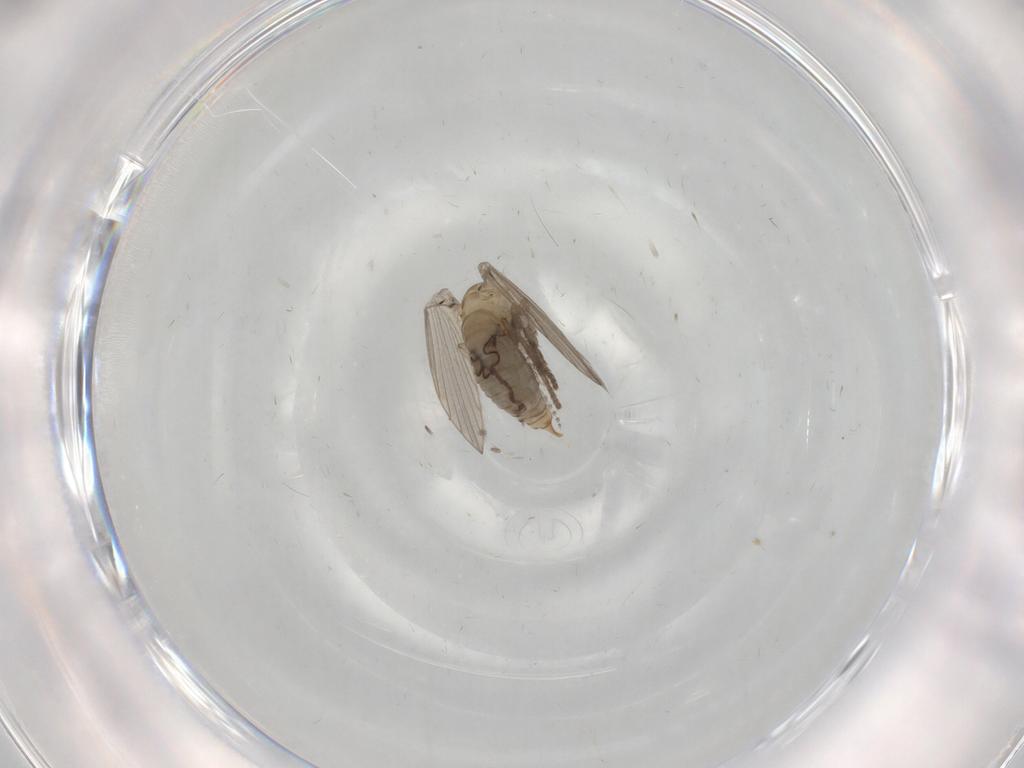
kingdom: Animalia
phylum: Arthropoda
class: Insecta
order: Diptera
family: Psychodidae
